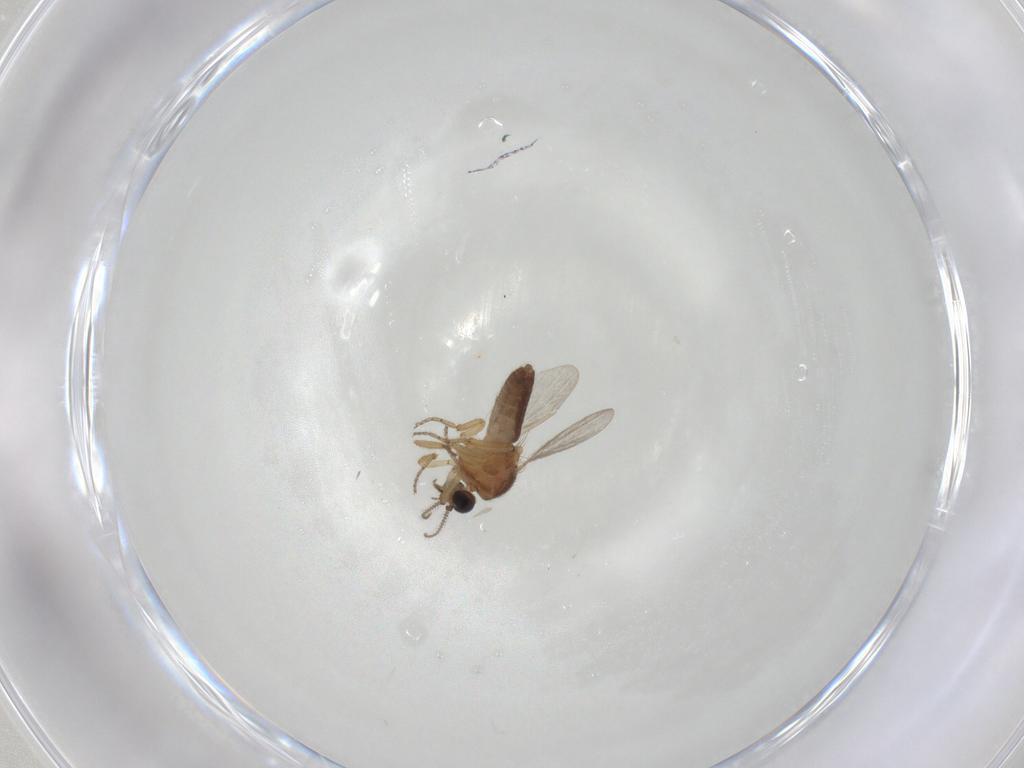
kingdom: Animalia
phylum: Arthropoda
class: Insecta
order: Diptera
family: Ceratopogonidae
